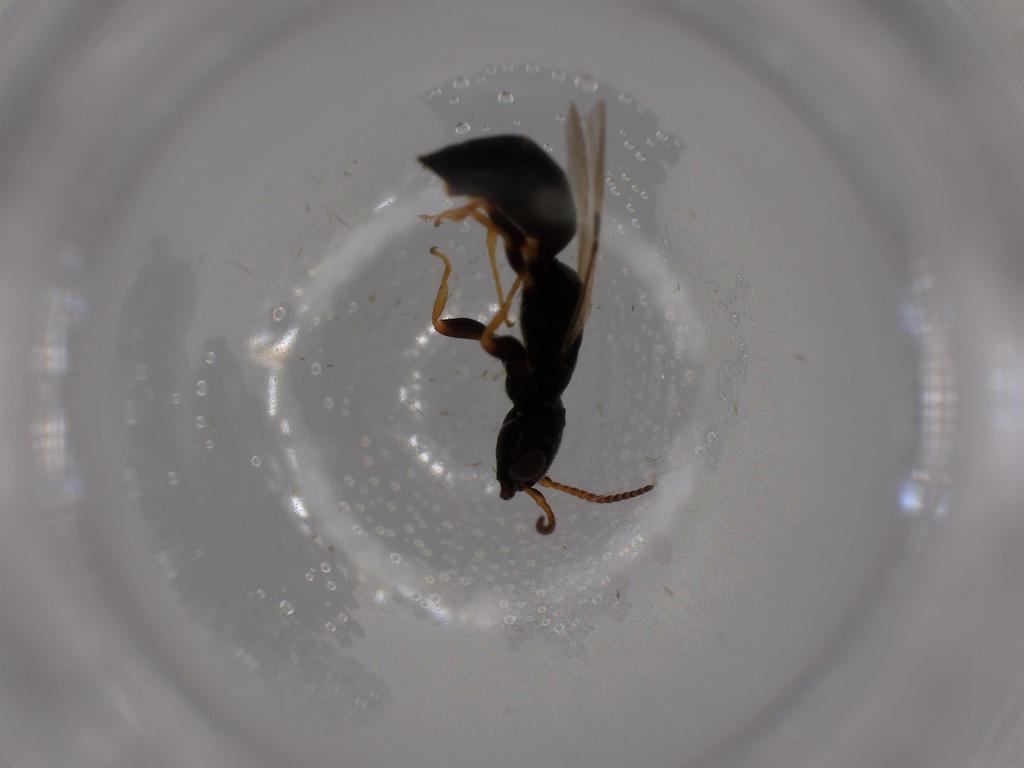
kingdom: Animalia
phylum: Arthropoda
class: Insecta
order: Hymenoptera
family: Bethylidae
